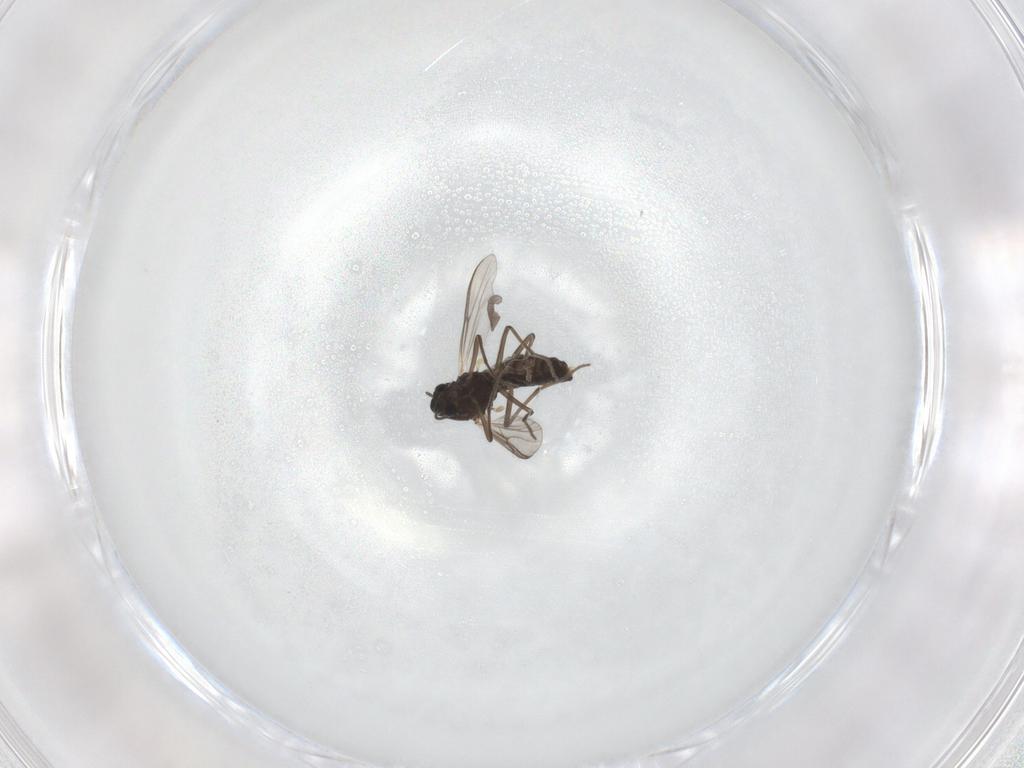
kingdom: Animalia
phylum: Arthropoda
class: Insecta
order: Diptera
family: Chironomidae
